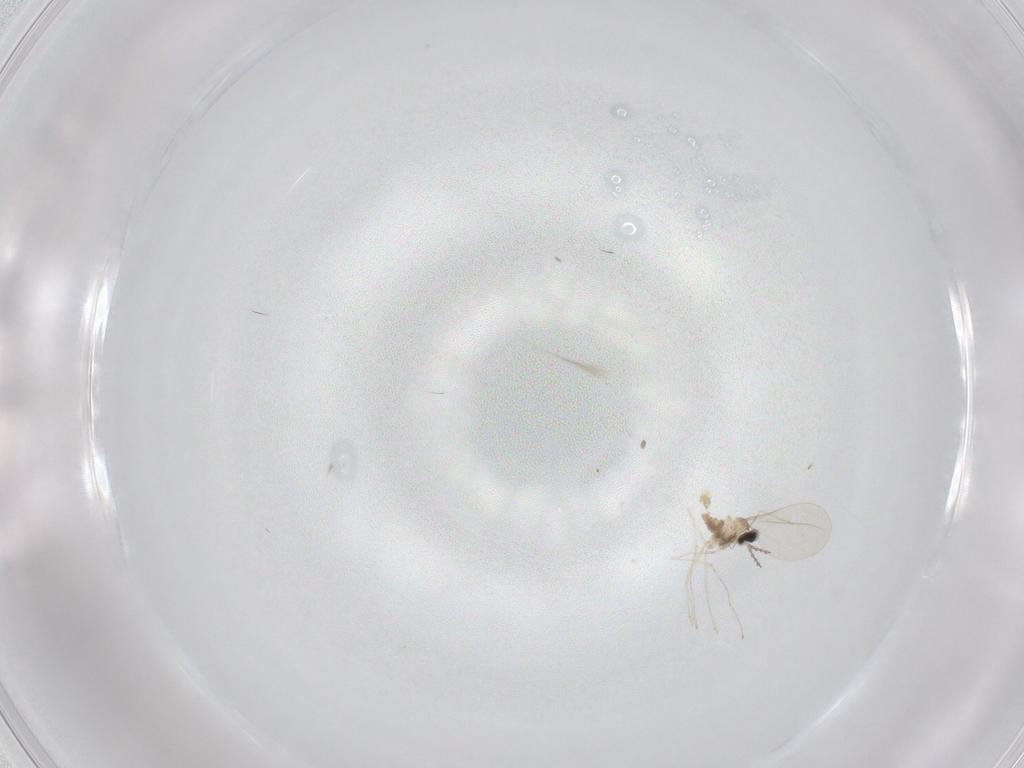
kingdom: Animalia
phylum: Arthropoda
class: Insecta
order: Diptera
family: Cecidomyiidae
